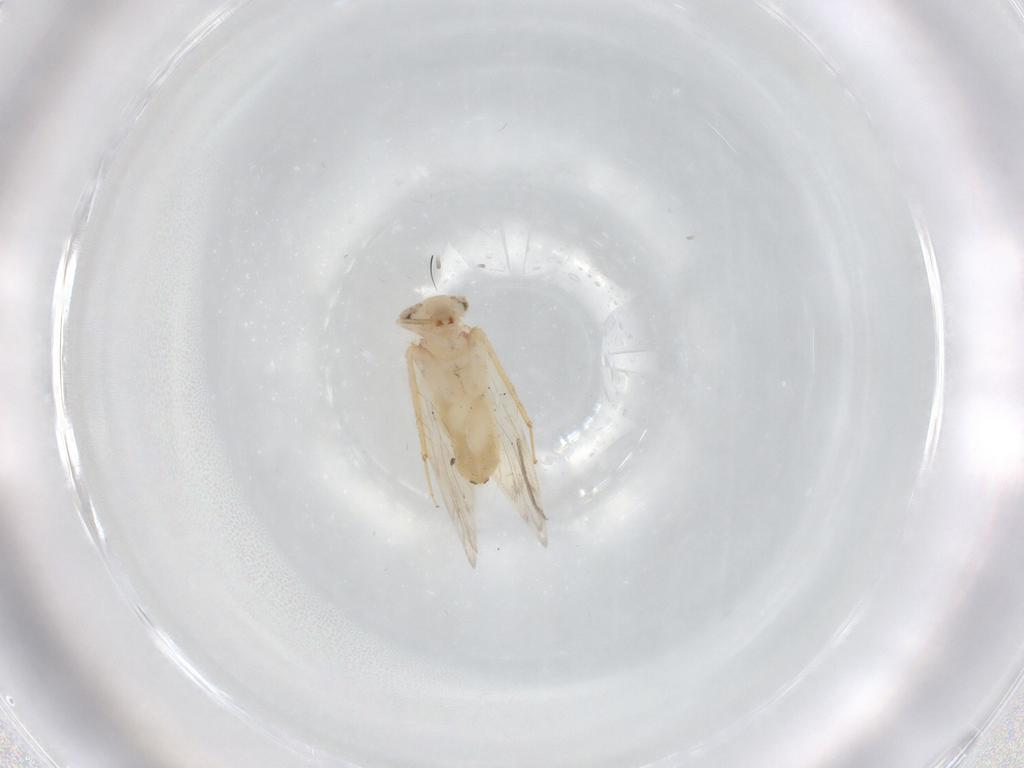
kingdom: Animalia
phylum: Arthropoda
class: Insecta
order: Psocodea
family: Lepidopsocidae
